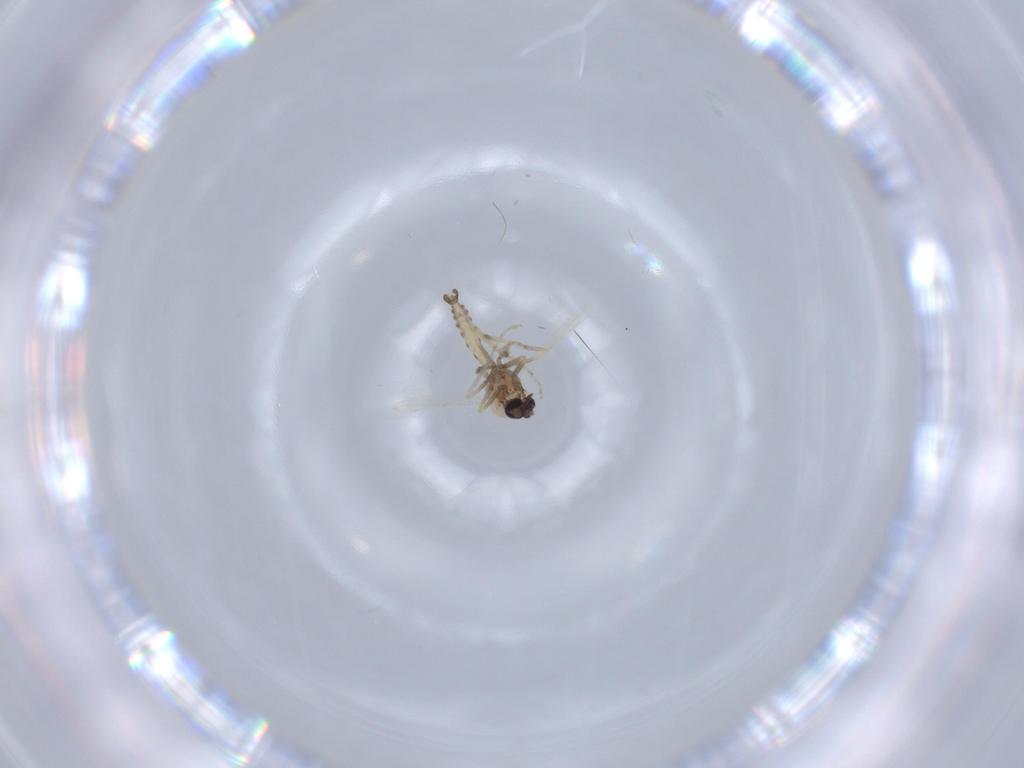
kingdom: Animalia
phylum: Arthropoda
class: Insecta
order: Diptera
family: Ceratopogonidae
